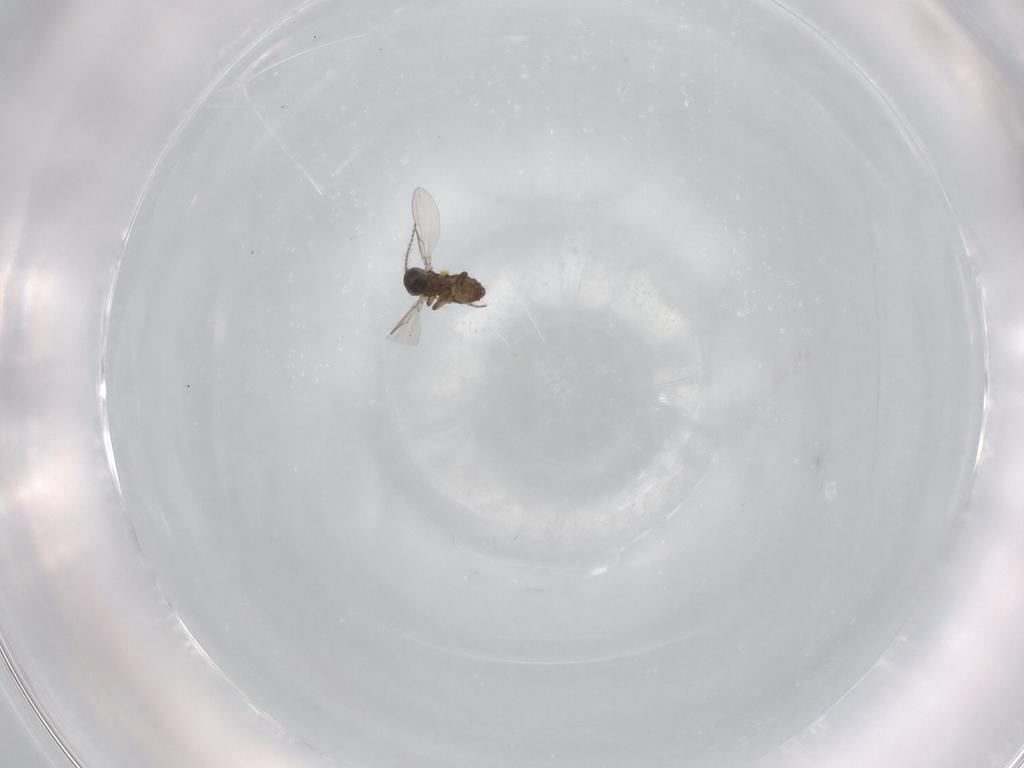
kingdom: Animalia
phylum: Arthropoda
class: Insecta
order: Diptera
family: Ceratopogonidae
